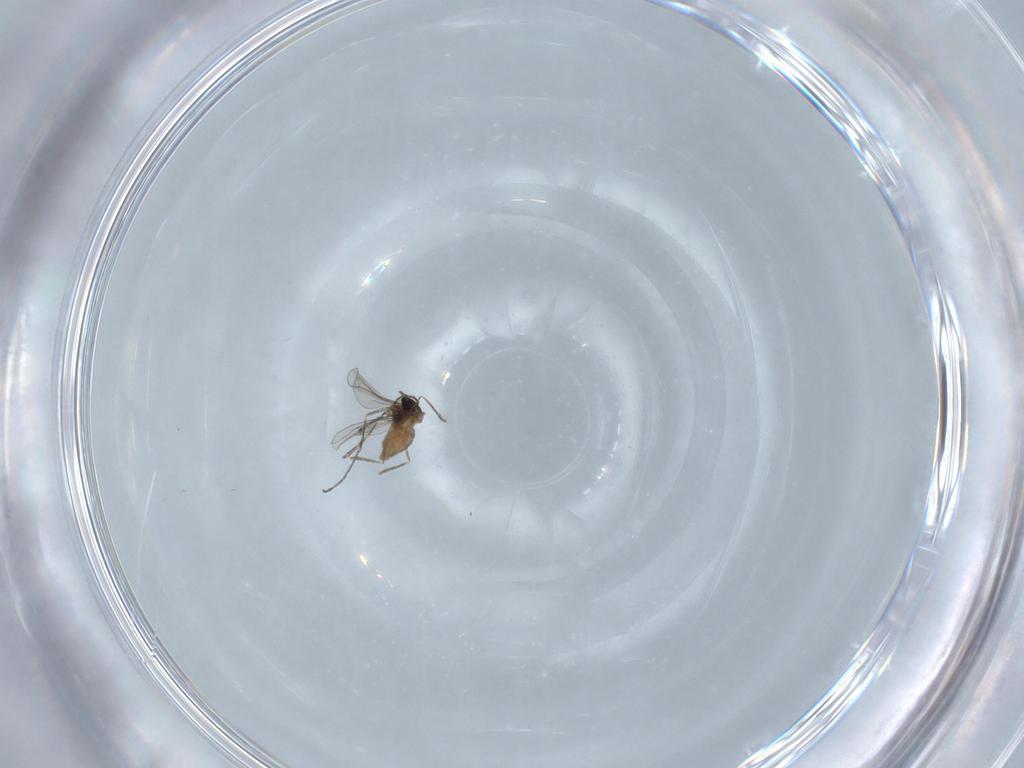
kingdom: Animalia
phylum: Arthropoda
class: Insecta
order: Diptera
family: Cecidomyiidae
